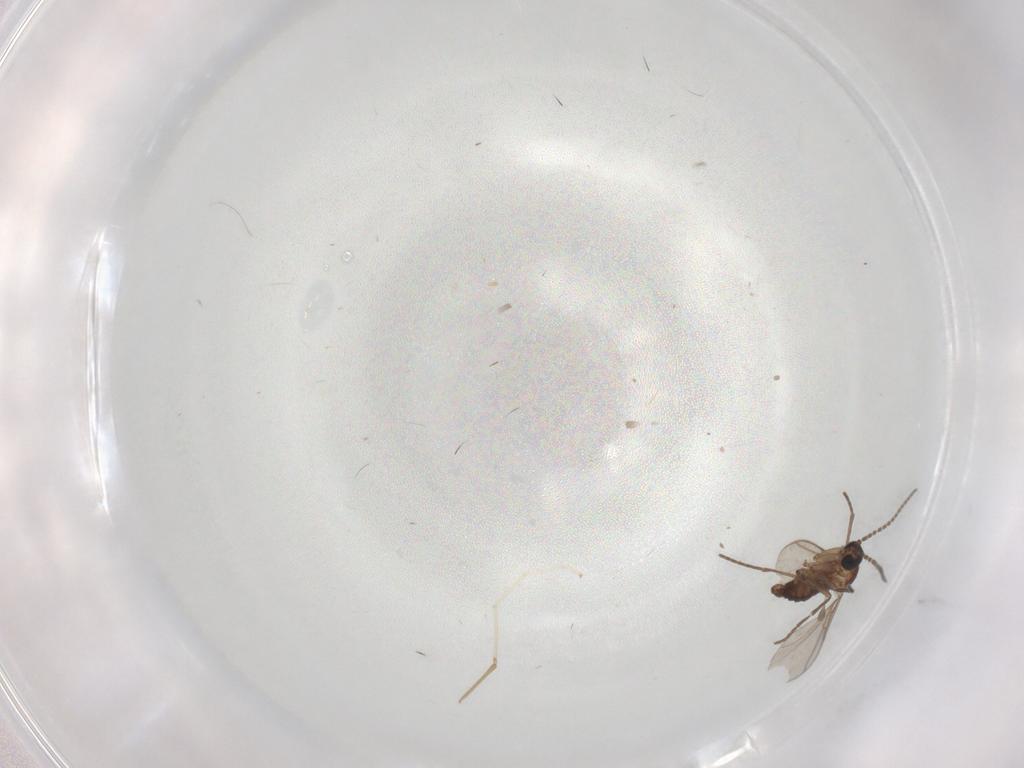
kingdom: Animalia
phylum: Arthropoda
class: Insecta
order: Diptera
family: Cecidomyiidae
